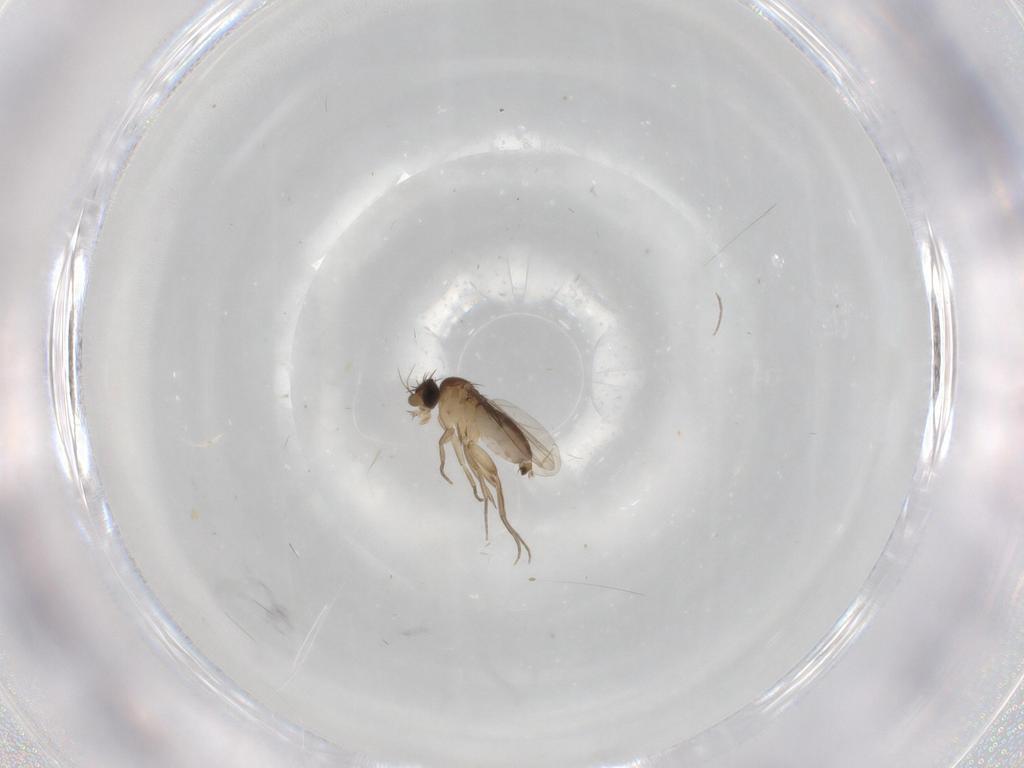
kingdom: Animalia
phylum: Arthropoda
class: Insecta
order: Diptera
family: Phoridae
